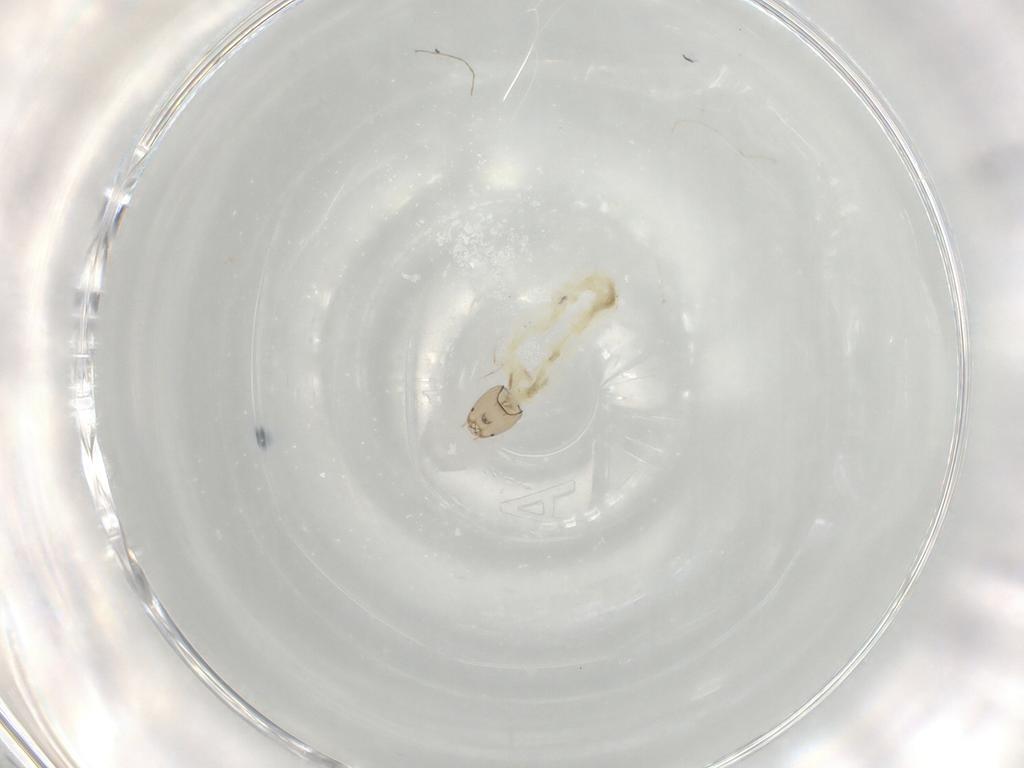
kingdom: Animalia
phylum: Arthropoda
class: Insecta
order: Diptera
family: Chironomidae
